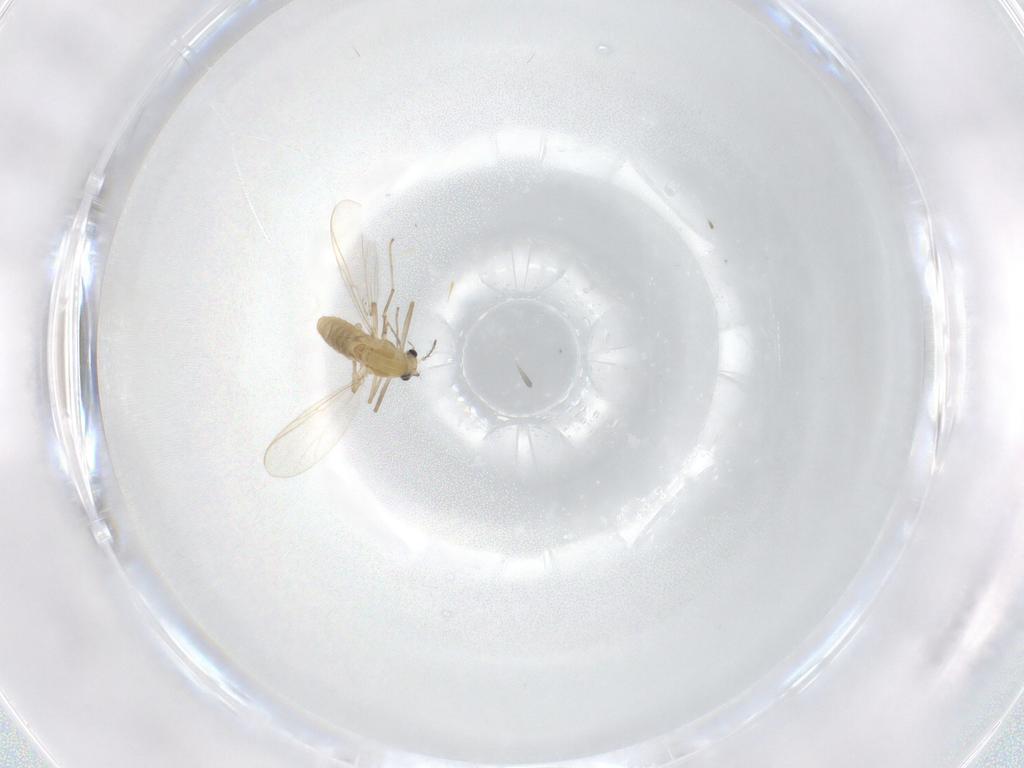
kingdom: Animalia
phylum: Arthropoda
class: Insecta
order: Diptera
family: Chironomidae
